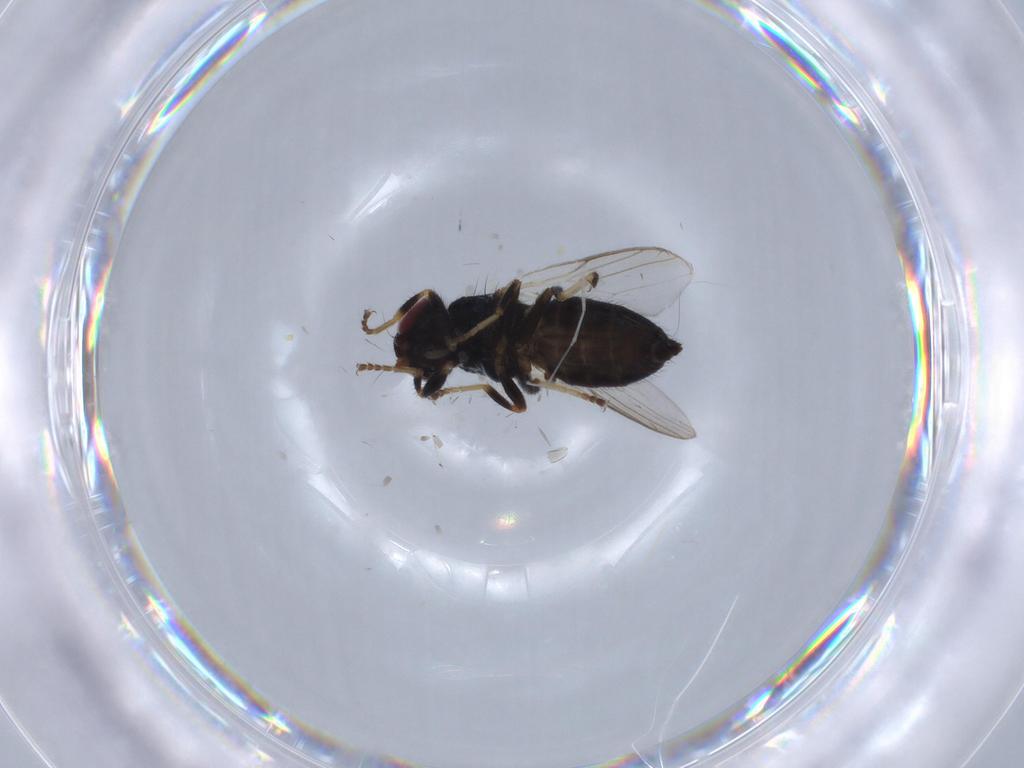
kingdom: Animalia
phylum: Arthropoda
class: Insecta
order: Diptera
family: Chloropidae
